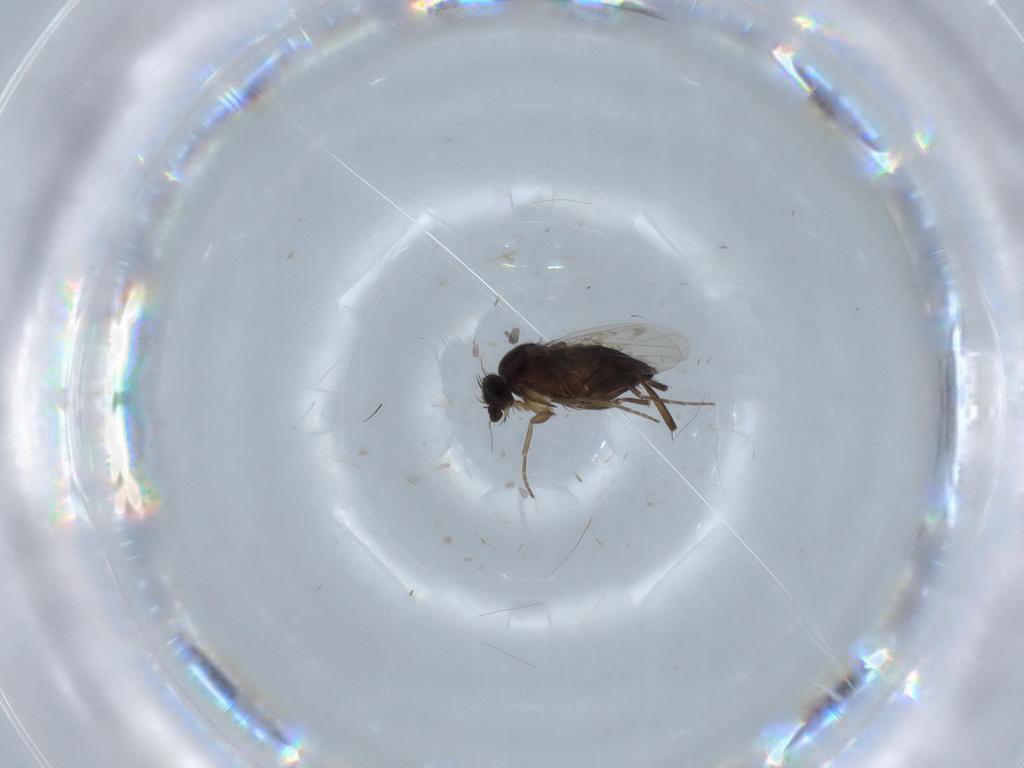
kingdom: Animalia
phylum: Arthropoda
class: Insecta
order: Diptera
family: Phoridae
